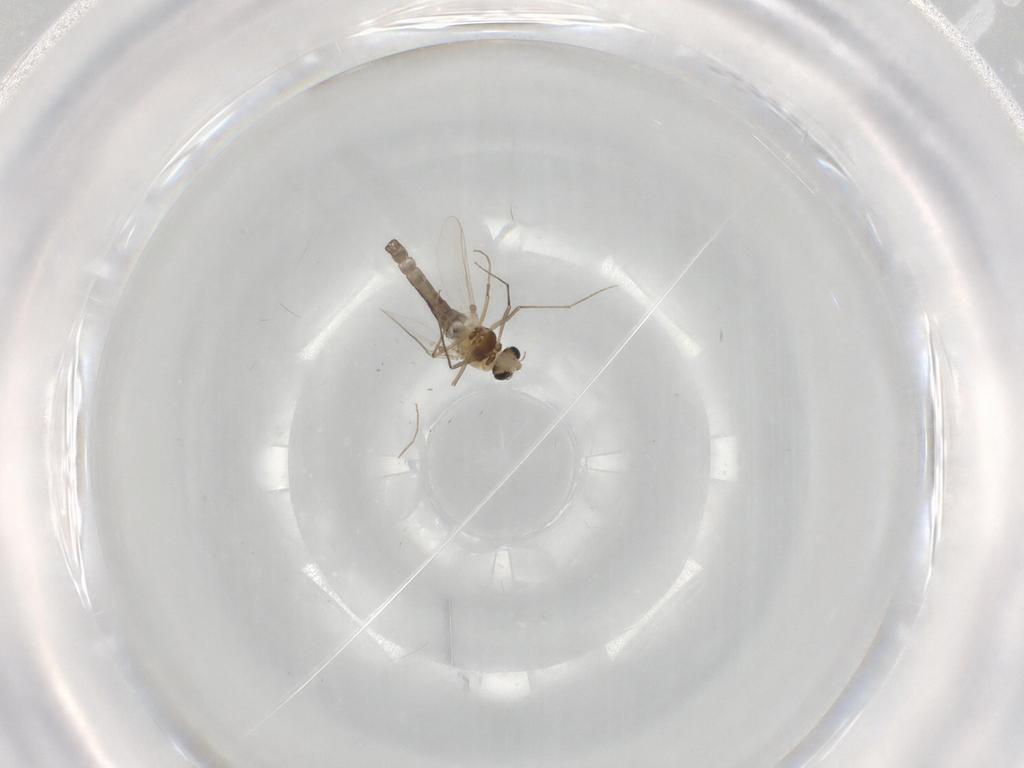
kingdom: Animalia
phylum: Arthropoda
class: Insecta
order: Diptera
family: Chironomidae
